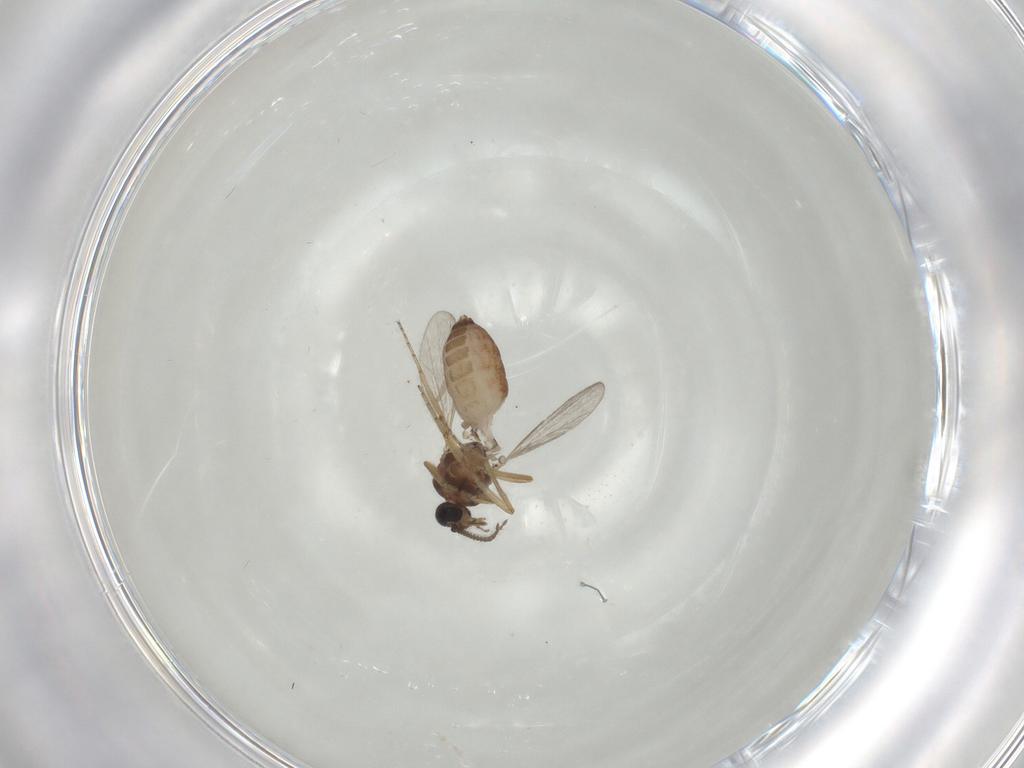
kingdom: Animalia
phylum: Arthropoda
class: Insecta
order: Diptera
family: Ceratopogonidae
